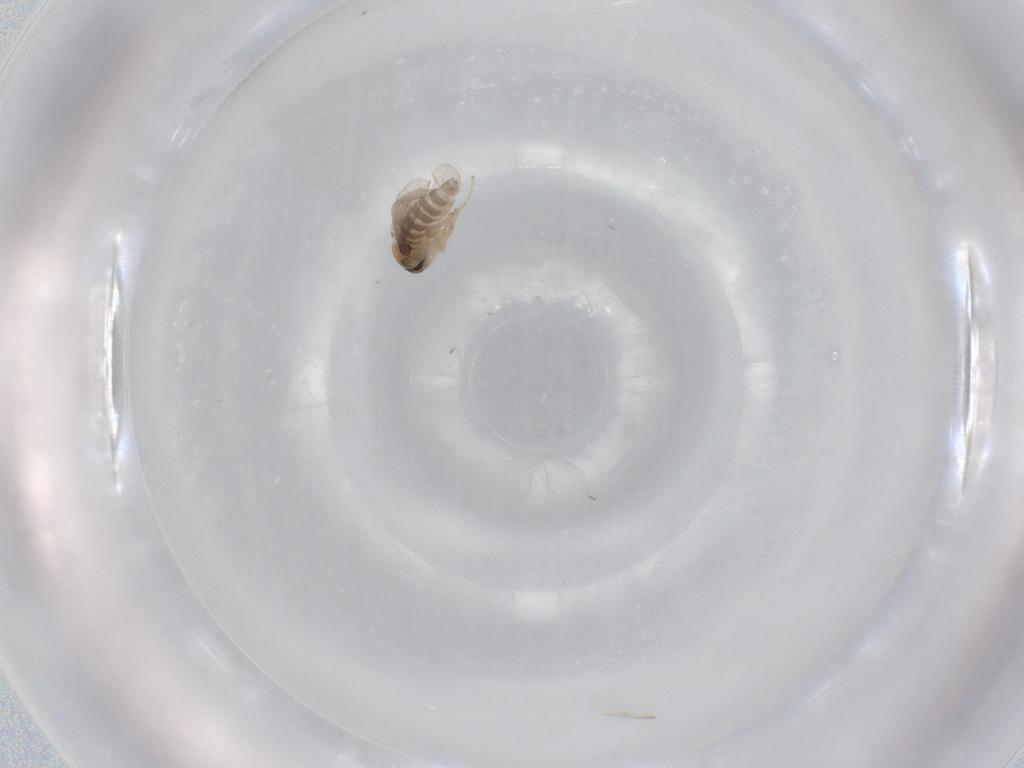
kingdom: Animalia
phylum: Arthropoda
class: Insecta
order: Diptera
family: Hybotidae
